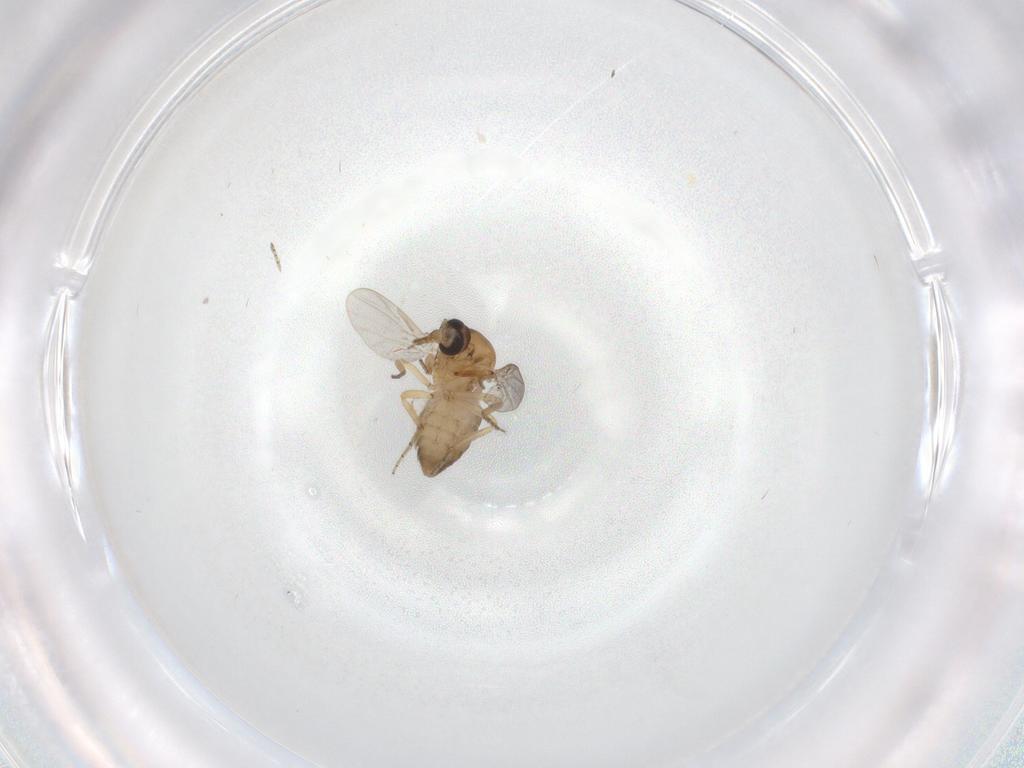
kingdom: Animalia
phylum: Arthropoda
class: Insecta
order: Diptera
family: Ceratopogonidae
